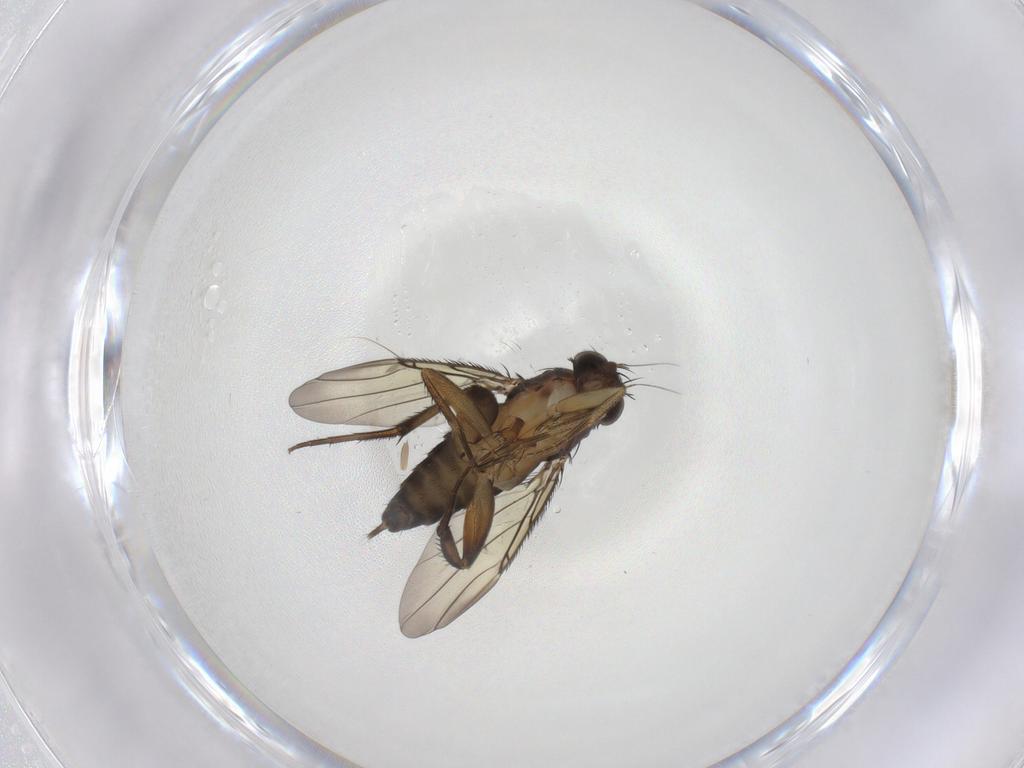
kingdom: Animalia
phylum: Arthropoda
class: Insecta
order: Diptera
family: Phoridae
